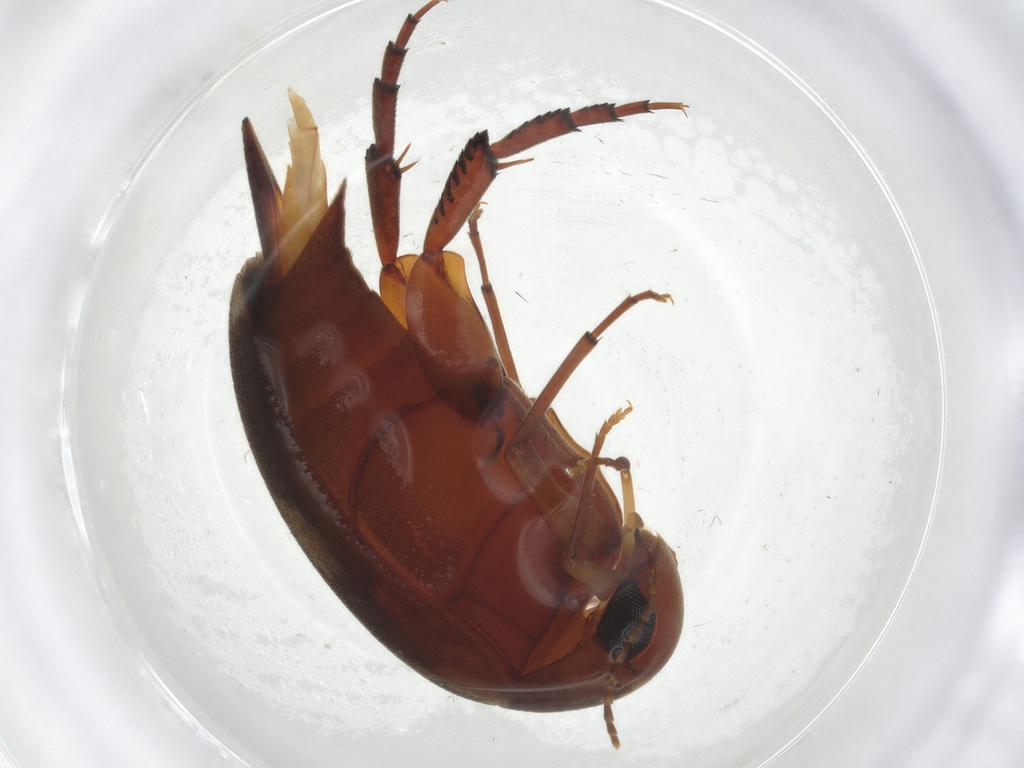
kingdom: Animalia
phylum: Arthropoda
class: Insecta
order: Coleoptera
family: Mordellidae
